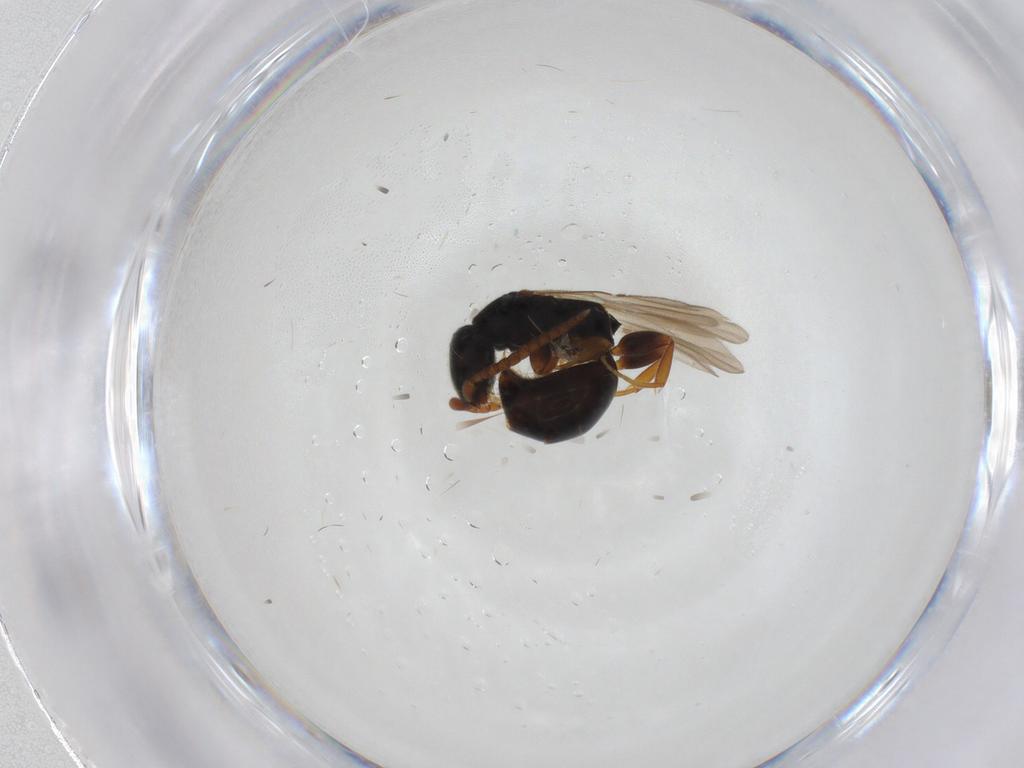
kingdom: Animalia
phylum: Arthropoda
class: Insecta
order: Hymenoptera
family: Bethylidae
